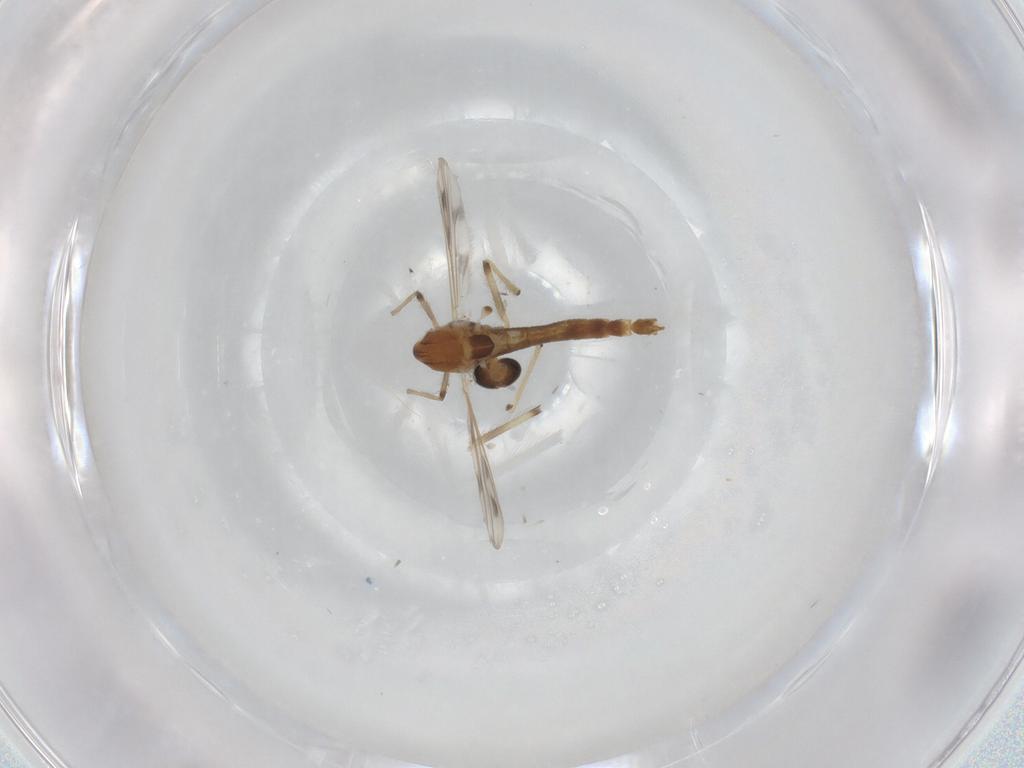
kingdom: Animalia
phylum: Arthropoda
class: Insecta
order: Diptera
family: Chironomidae
